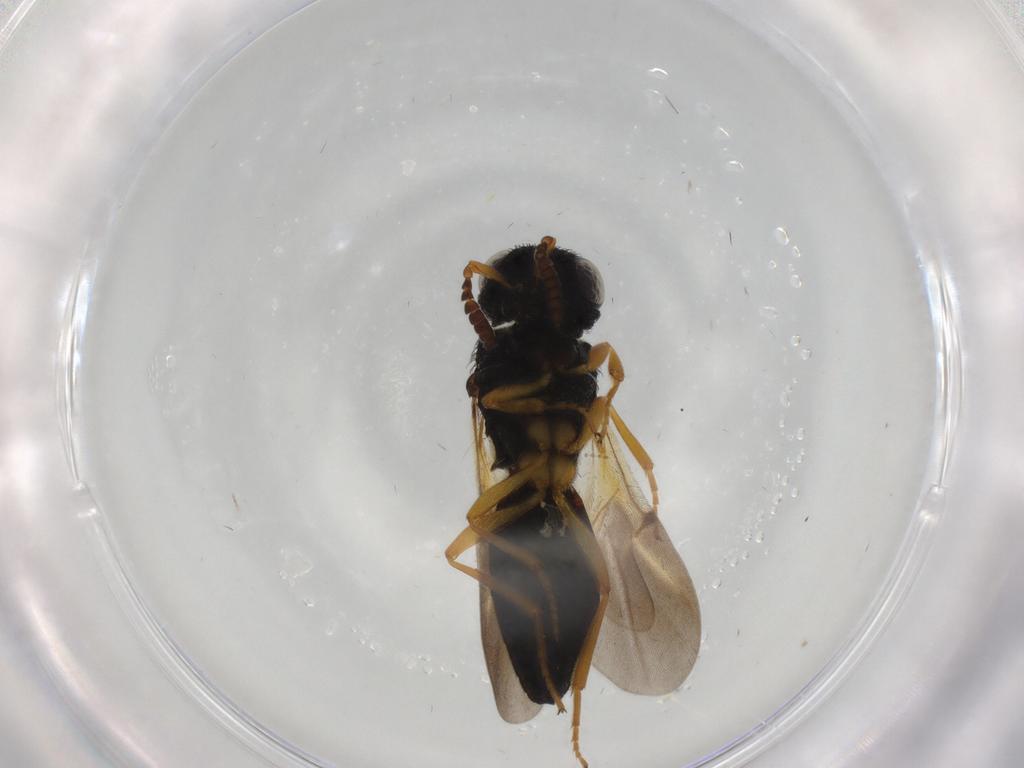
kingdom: Animalia
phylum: Arthropoda
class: Insecta
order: Hymenoptera
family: Scelionidae
